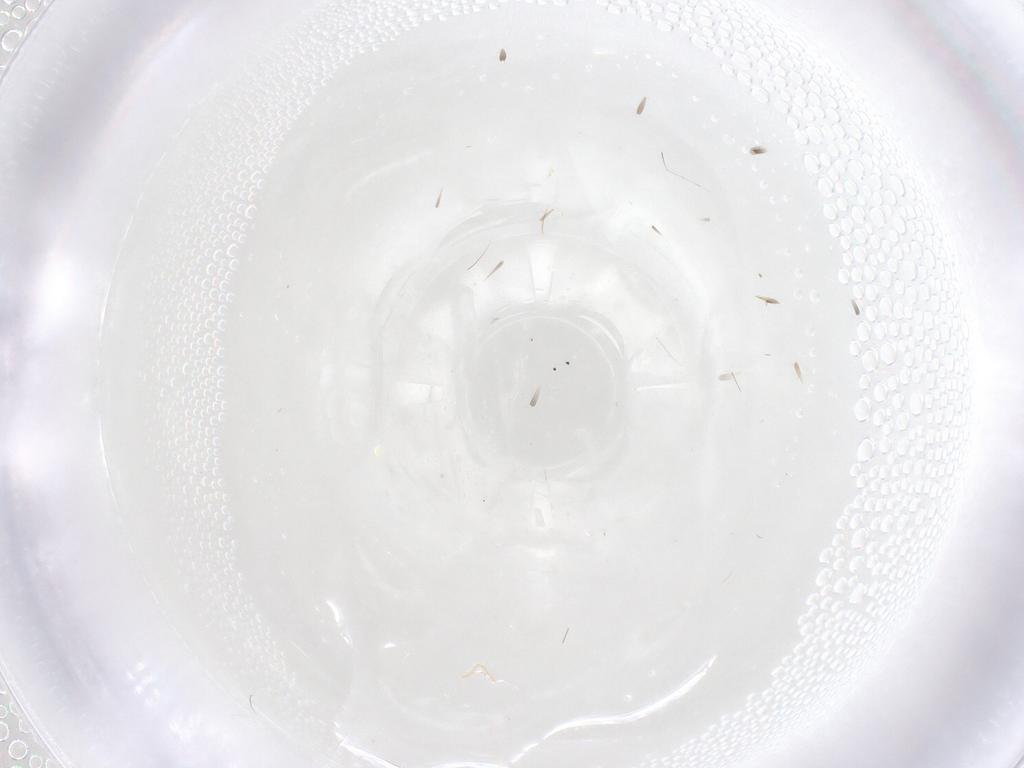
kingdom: Animalia
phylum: Arthropoda
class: Insecta
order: Diptera
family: Chironomidae
